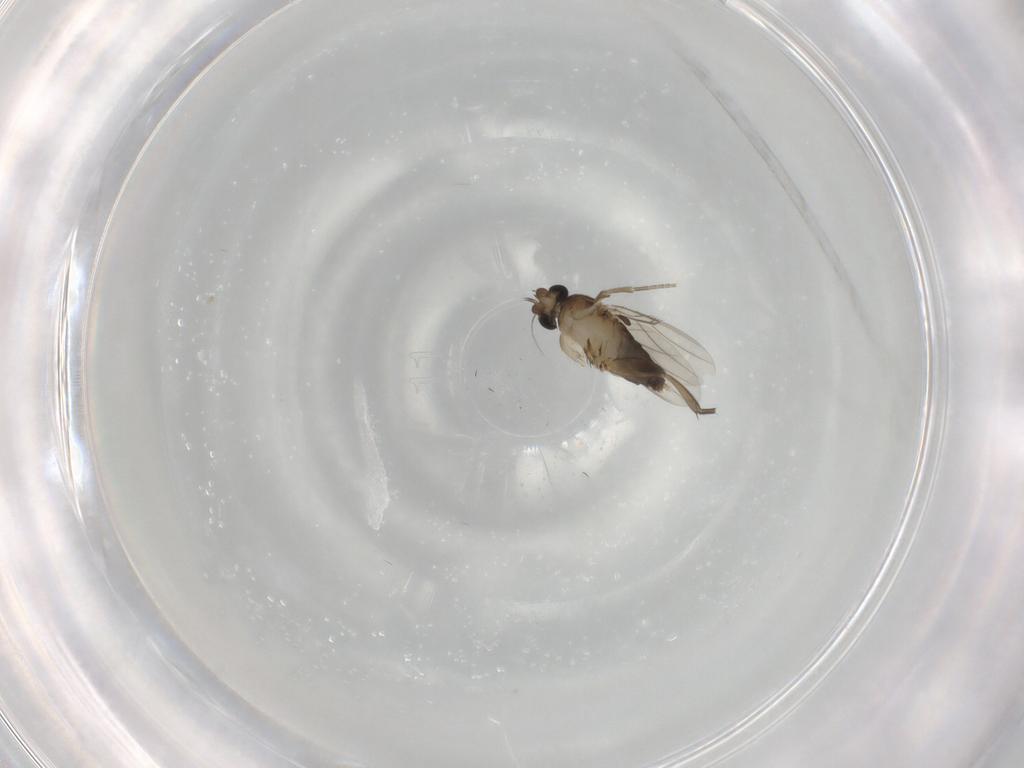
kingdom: Animalia
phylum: Arthropoda
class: Insecta
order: Diptera
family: Phoridae
